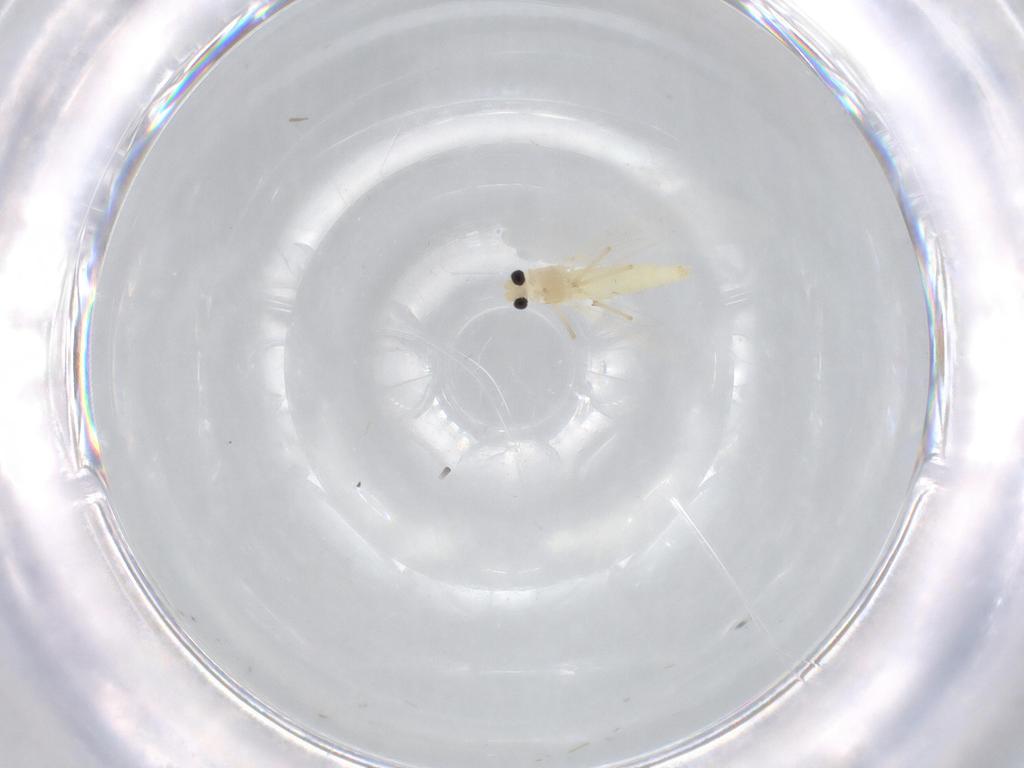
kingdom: Animalia
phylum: Arthropoda
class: Insecta
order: Diptera
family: Chironomidae
